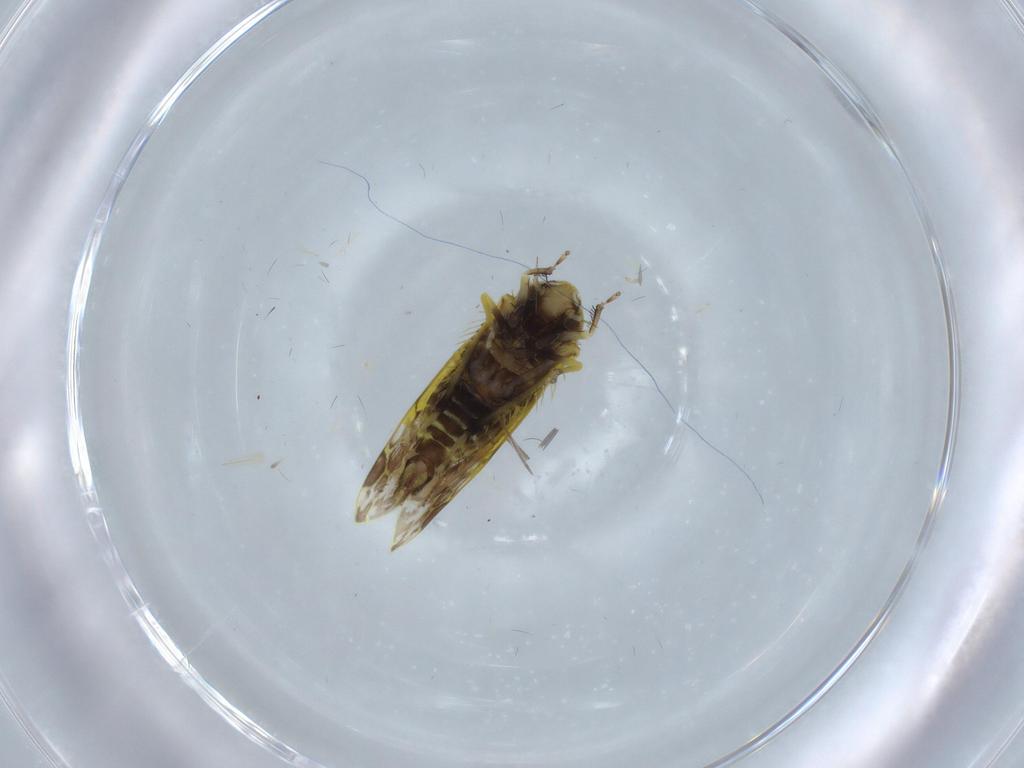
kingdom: Animalia
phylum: Arthropoda
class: Insecta
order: Hemiptera
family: Cicadellidae
